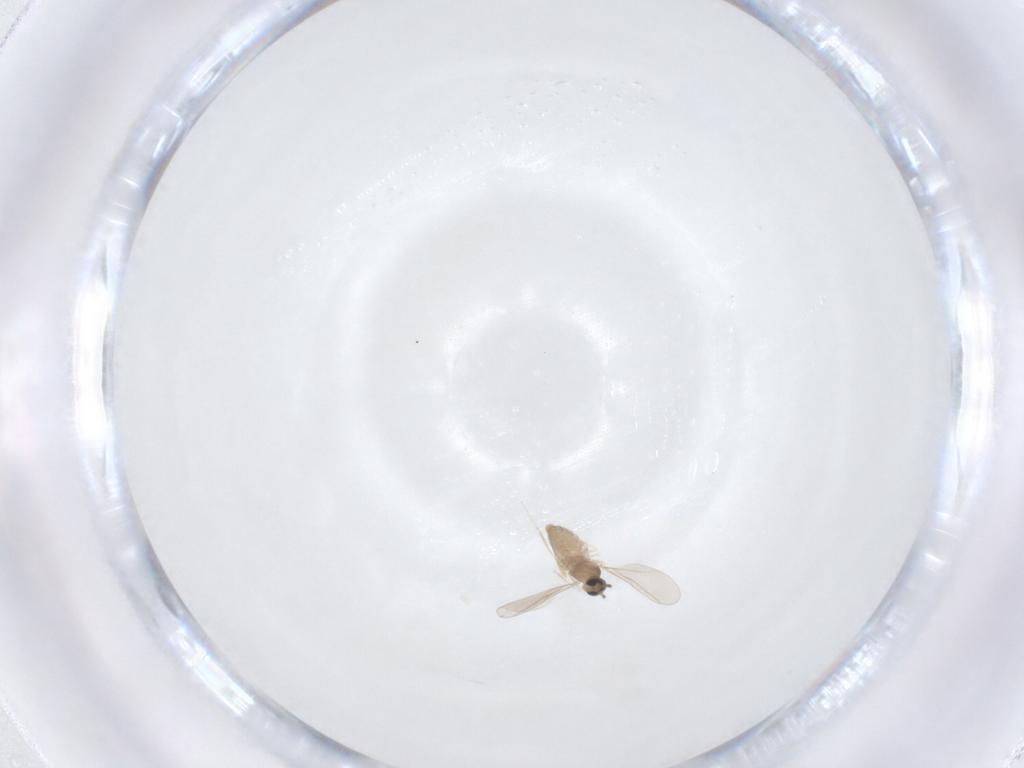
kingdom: Animalia
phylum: Arthropoda
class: Insecta
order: Diptera
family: Cecidomyiidae
